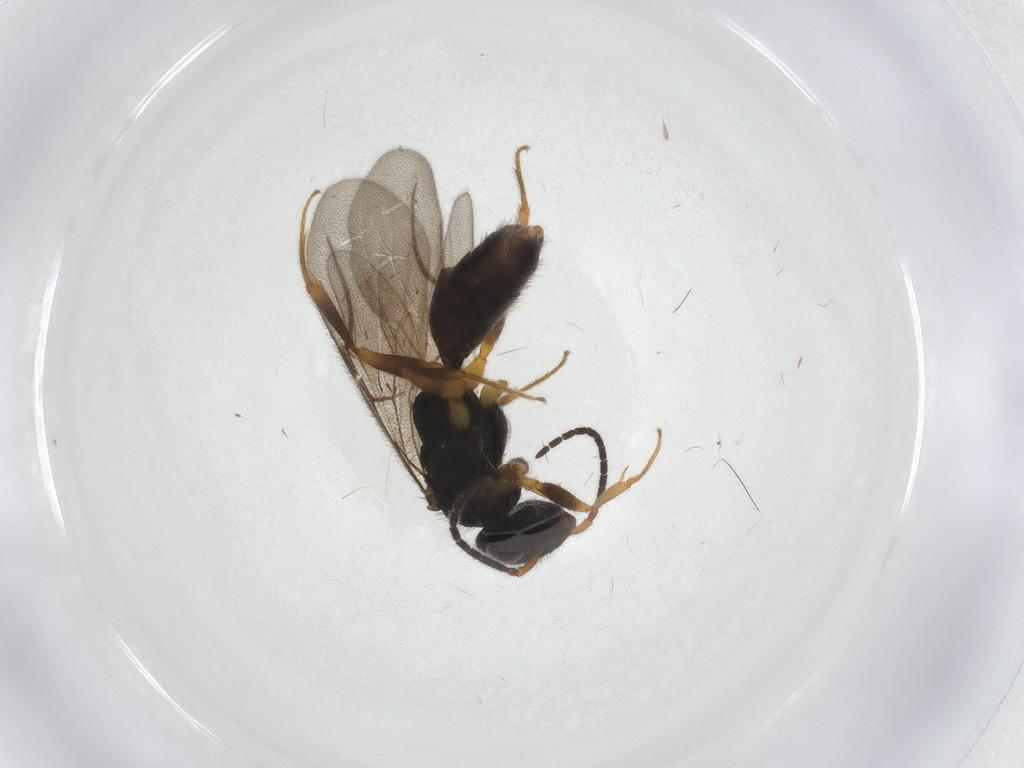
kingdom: Animalia
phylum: Arthropoda
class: Insecta
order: Hymenoptera
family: Bethylidae
